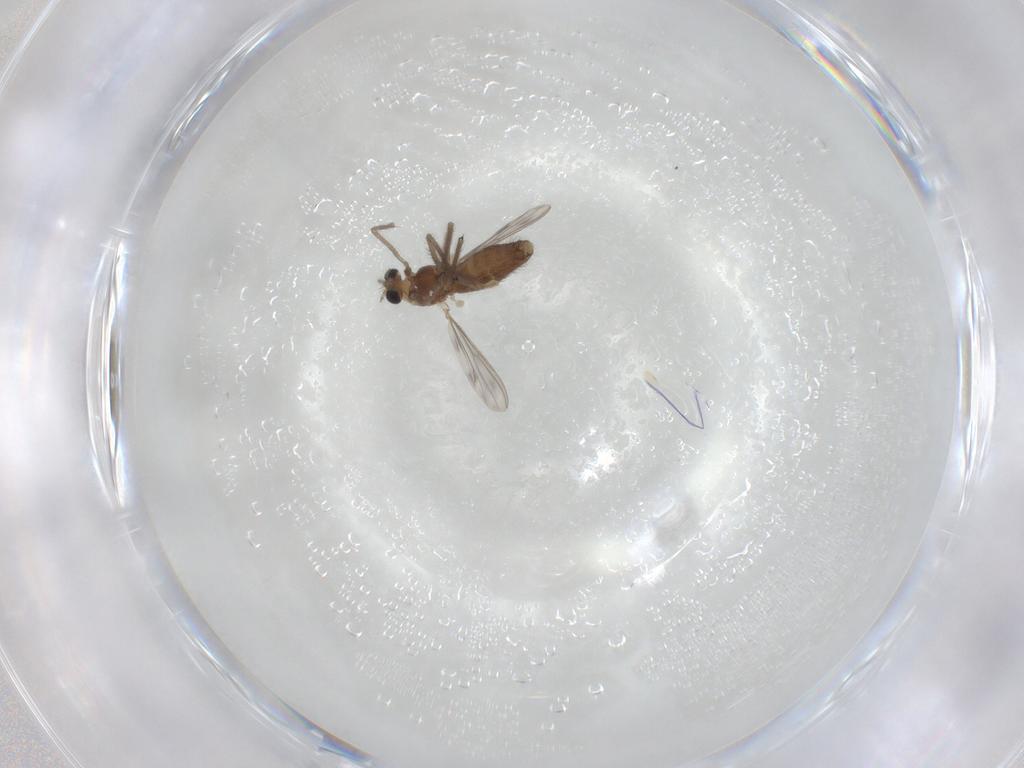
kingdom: Animalia
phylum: Arthropoda
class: Insecta
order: Diptera
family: Chironomidae
